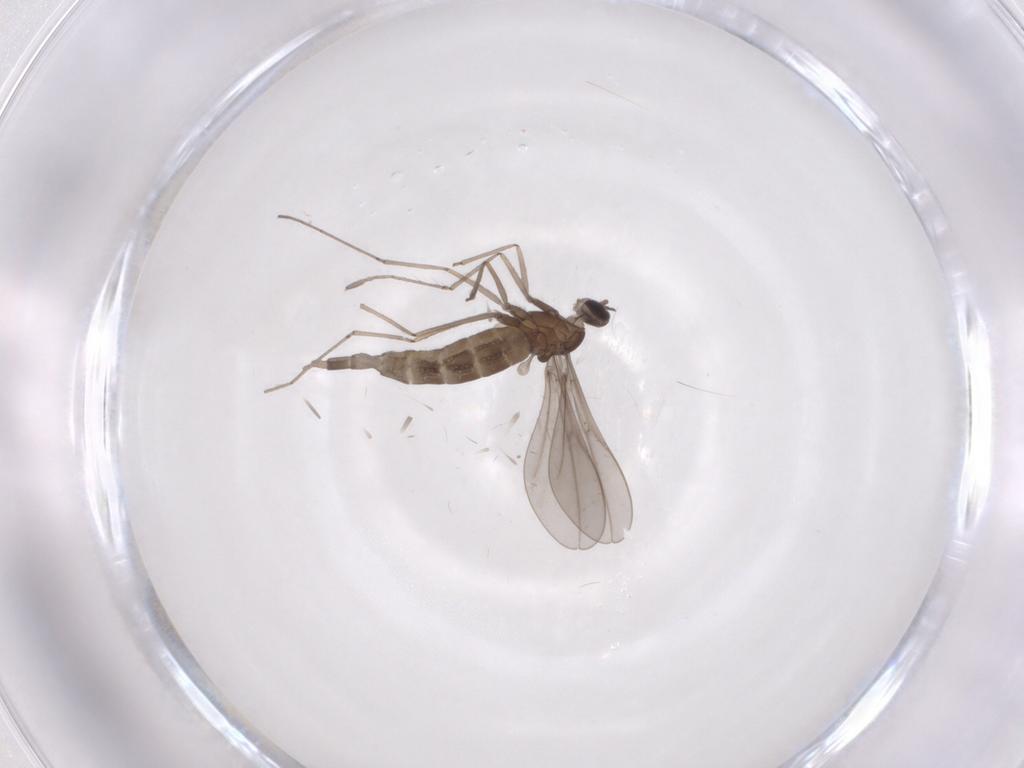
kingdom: Animalia
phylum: Arthropoda
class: Insecta
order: Diptera
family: Cecidomyiidae
